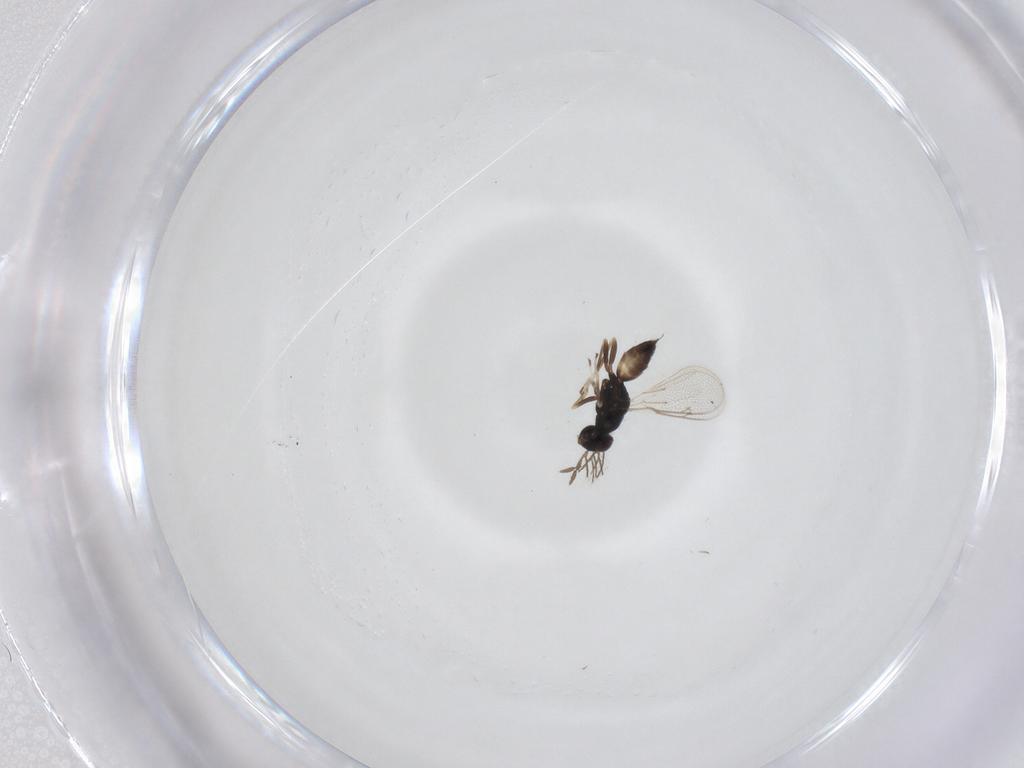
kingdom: Animalia
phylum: Arthropoda
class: Insecta
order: Hymenoptera
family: Eulophidae
